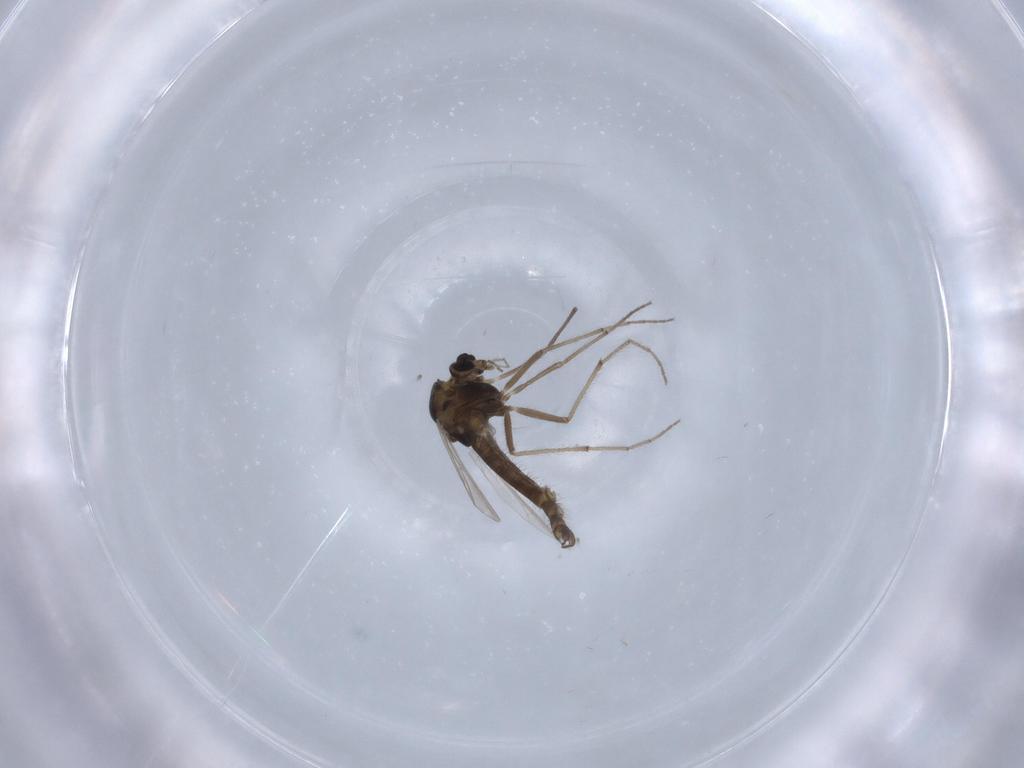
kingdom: Animalia
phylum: Arthropoda
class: Insecta
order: Diptera
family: Chironomidae
